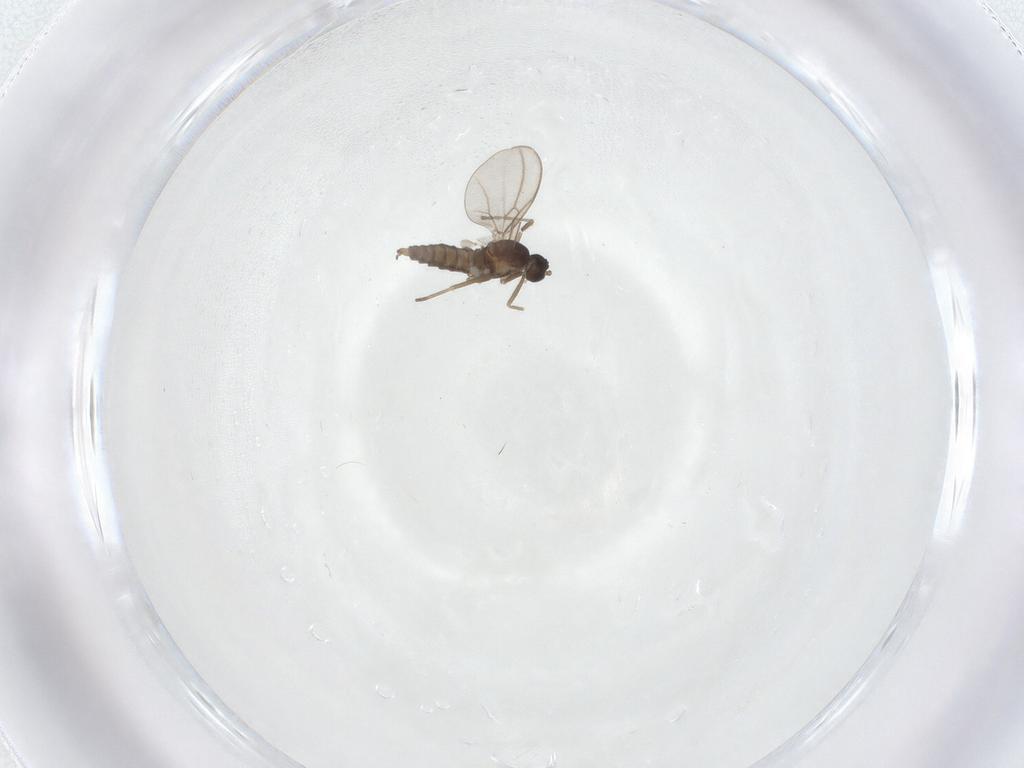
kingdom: Animalia
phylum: Arthropoda
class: Insecta
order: Diptera
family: Cecidomyiidae
